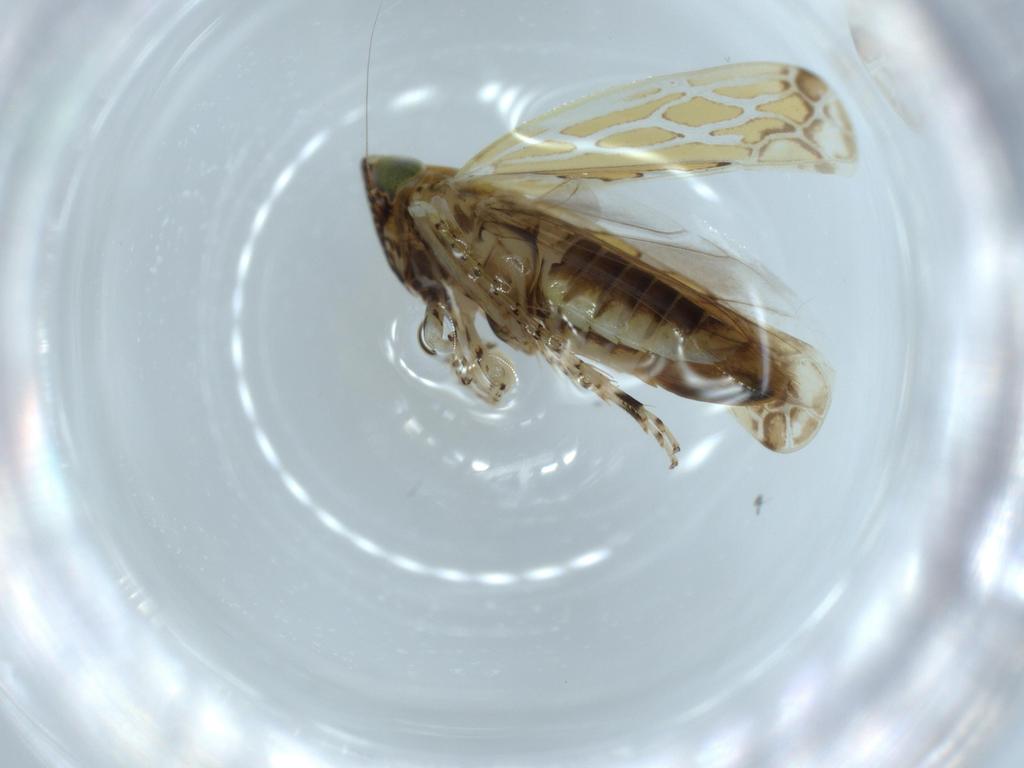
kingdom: Animalia
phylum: Arthropoda
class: Insecta
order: Hemiptera
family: Cicadellidae
